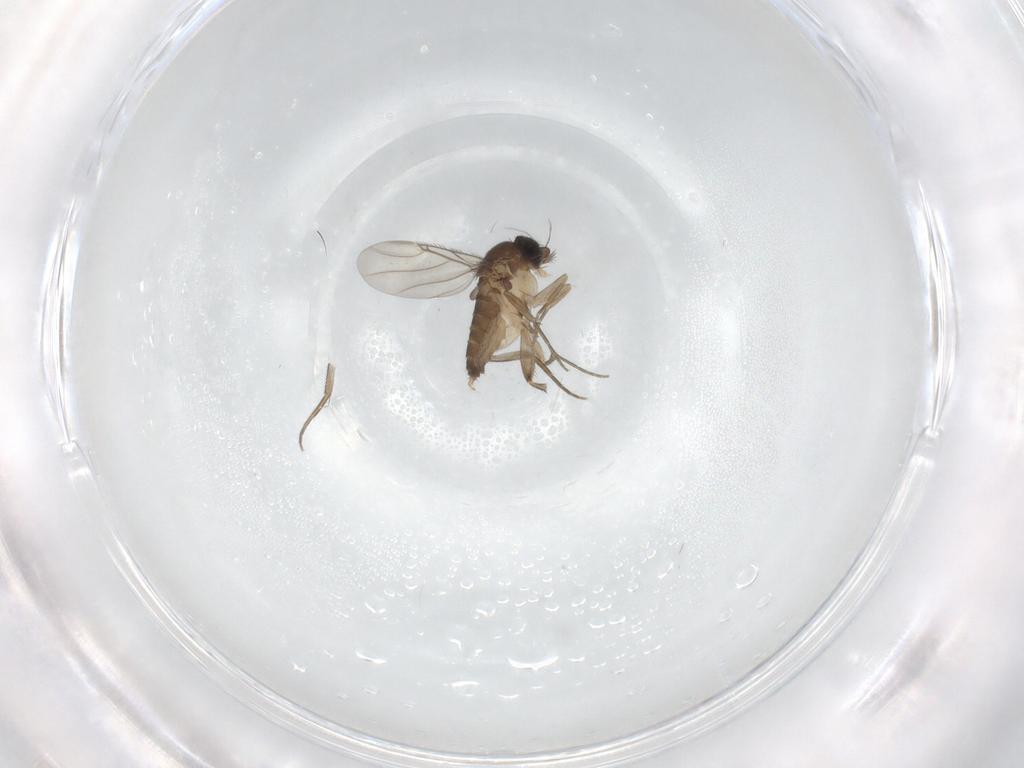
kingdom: Animalia
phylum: Arthropoda
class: Insecta
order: Diptera
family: Phoridae
